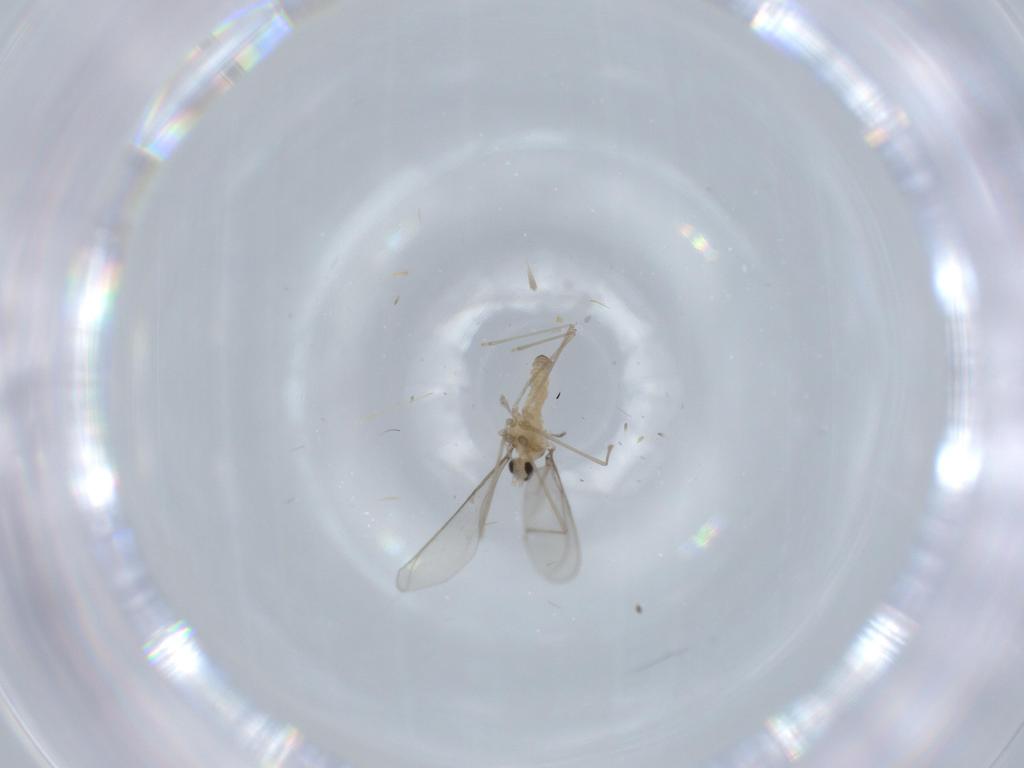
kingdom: Animalia
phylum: Arthropoda
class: Insecta
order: Diptera
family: Cecidomyiidae
